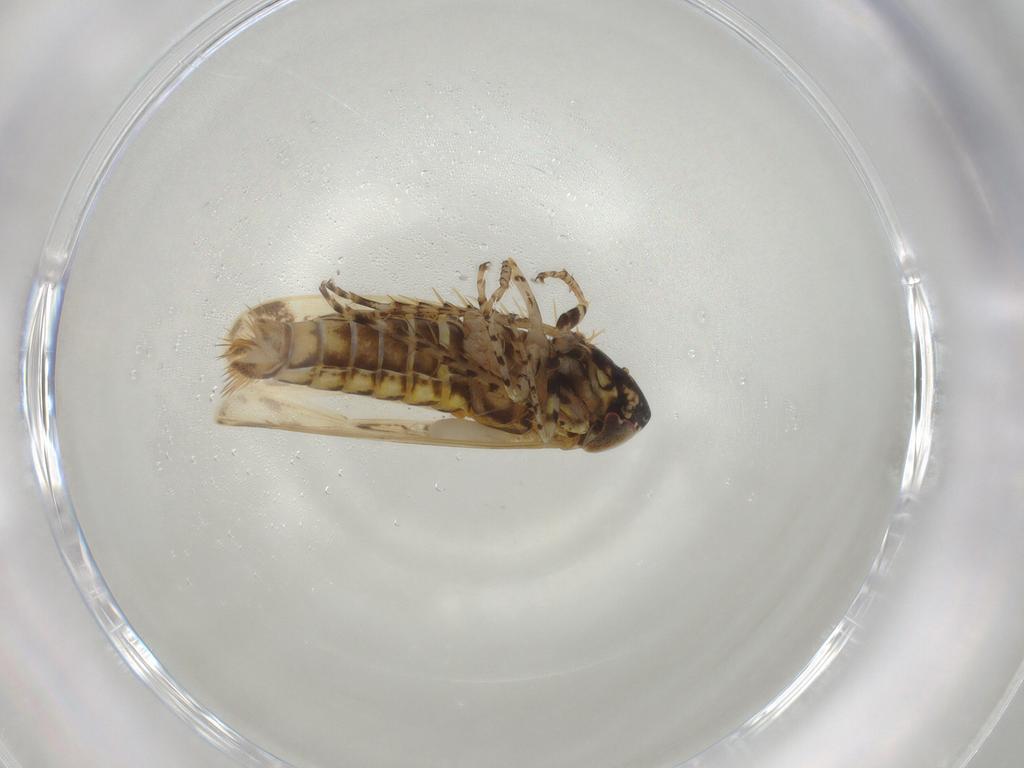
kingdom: Animalia
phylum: Arthropoda
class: Insecta
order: Hemiptera
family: Cicadellidae
